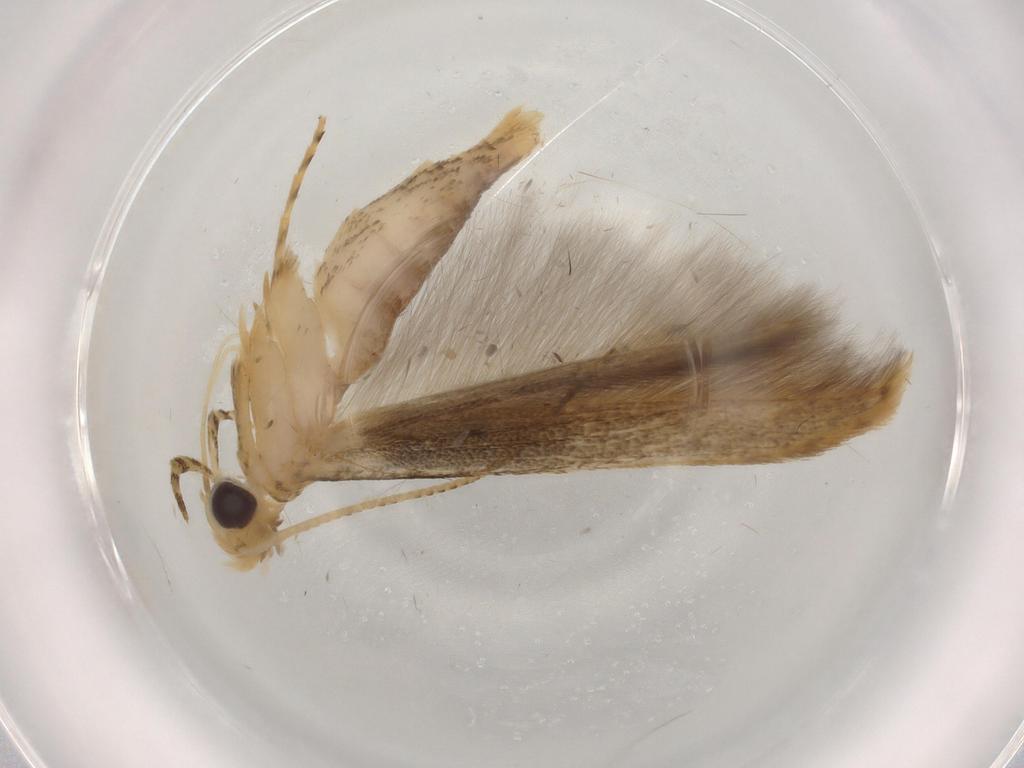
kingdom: Animalia
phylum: Arthropoda
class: Insecta
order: Lepidoptera
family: Batrachedridae
